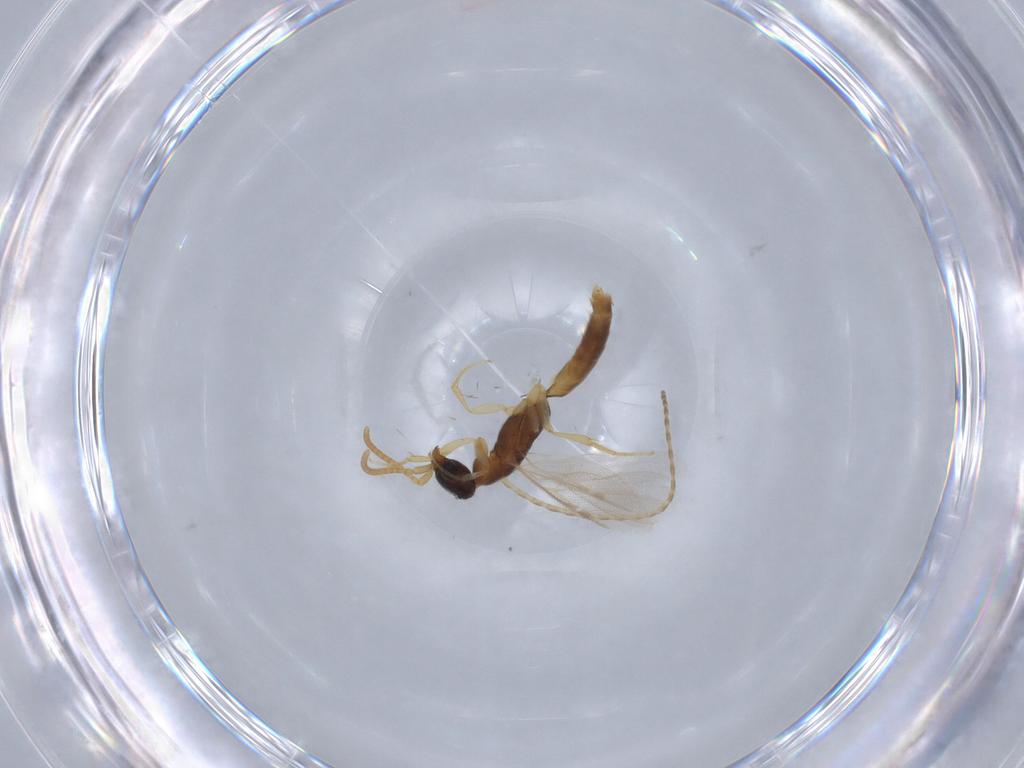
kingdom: Animalia
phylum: Arthropoda
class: Insecta
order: Hymenoptera
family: Bethylidae
